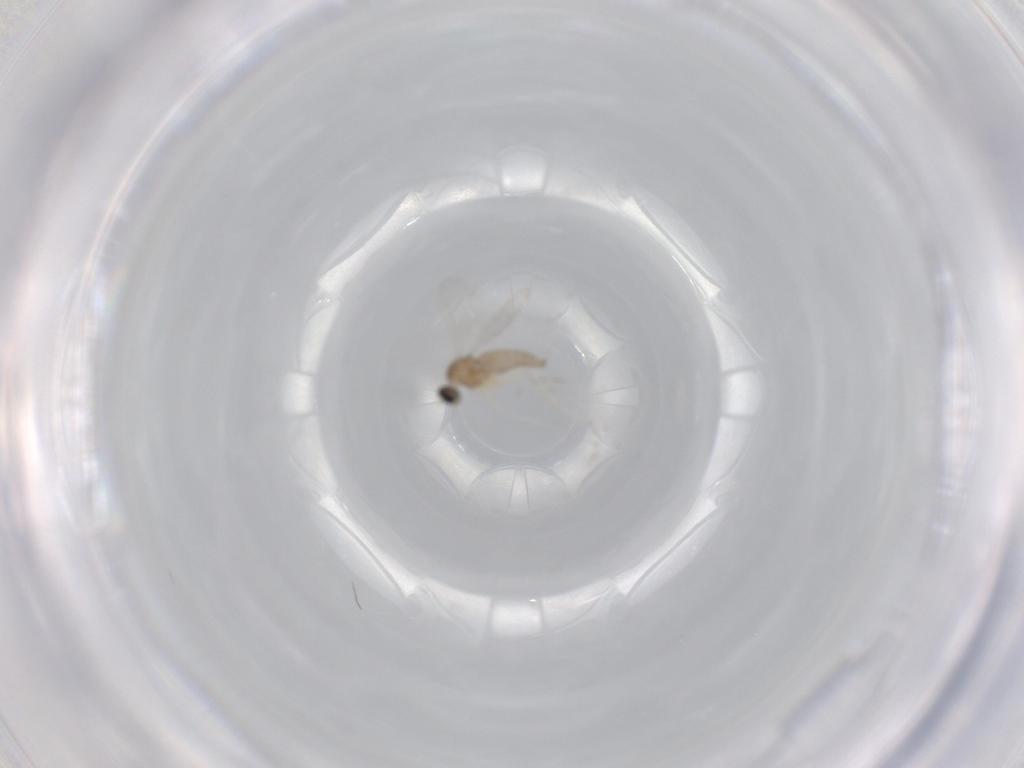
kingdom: Animalia
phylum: Arthropoda
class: Insecta
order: Diptera
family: Cecidomyiidae
